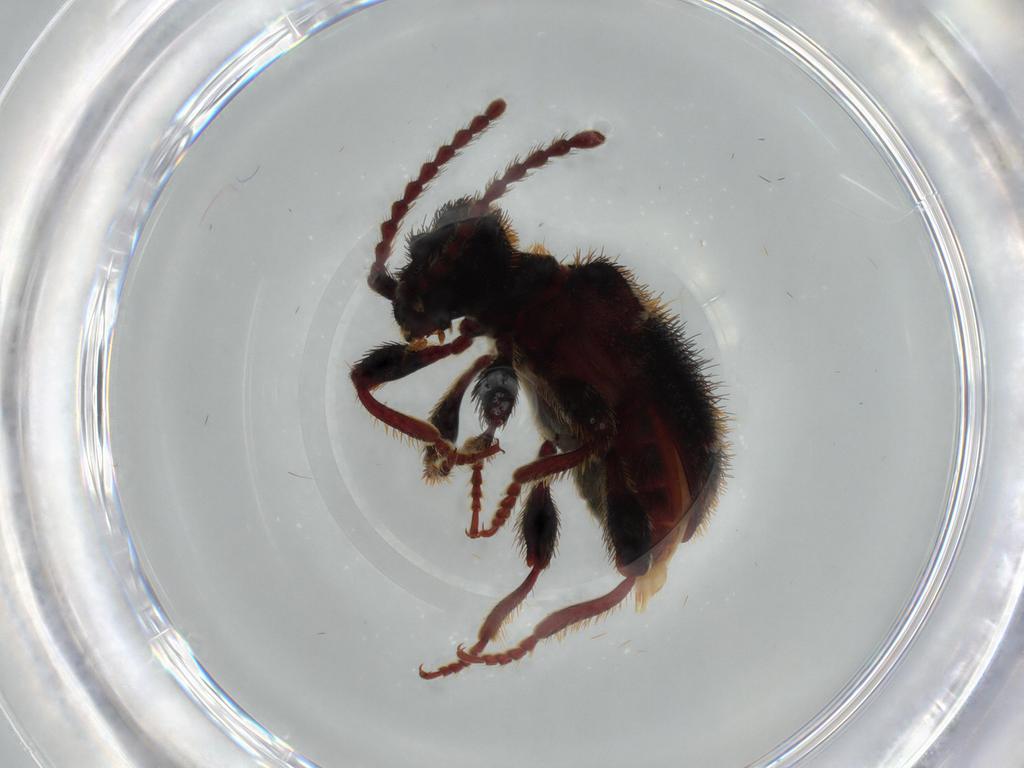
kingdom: Animalia
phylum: Arthropoda
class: Insecta
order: Coleoptera
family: Ptinidae
